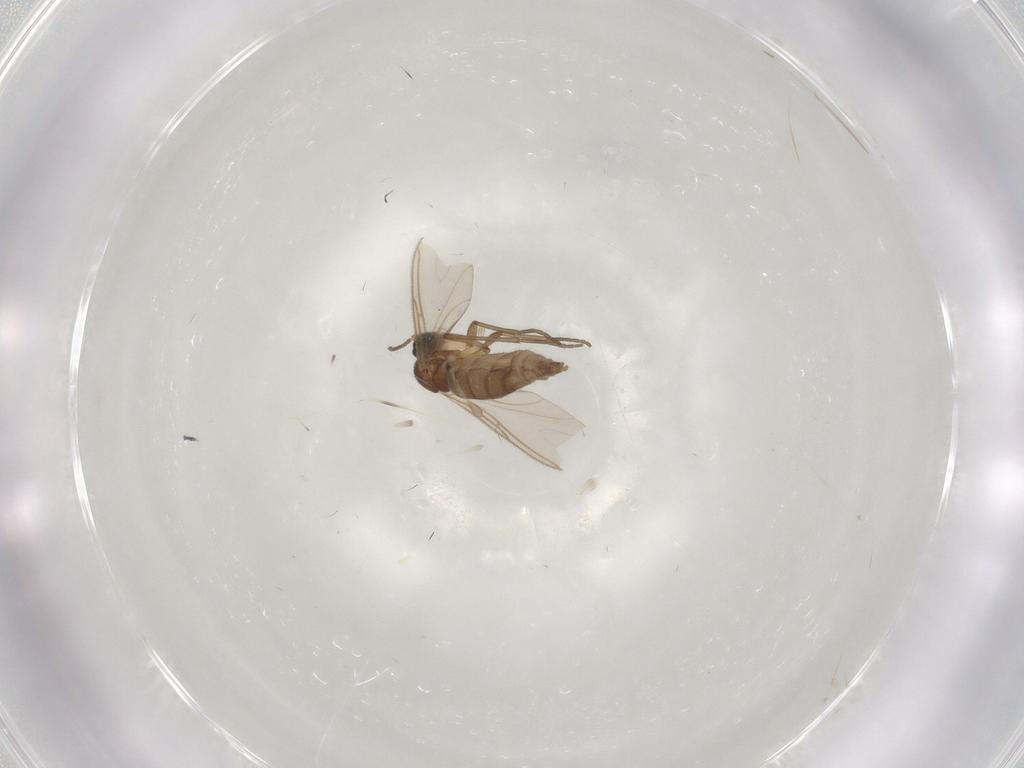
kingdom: Animalia
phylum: Arthropoda
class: Insecta
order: Diptera
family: Sciaridae
